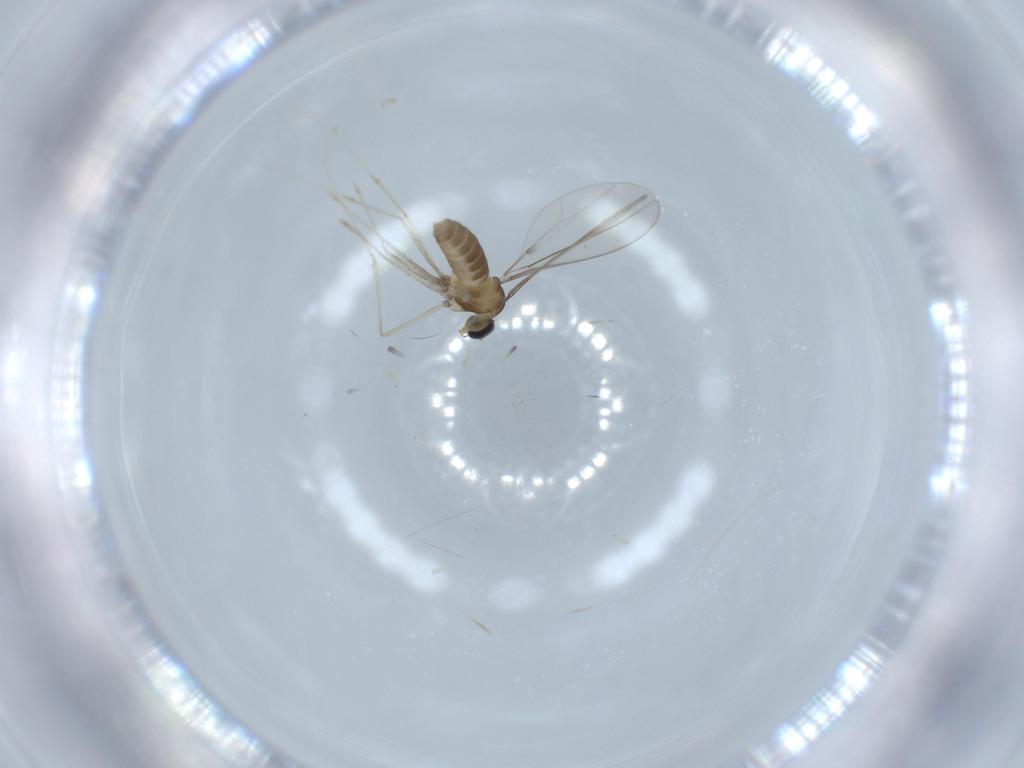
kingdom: Animalia
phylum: Arthropoda
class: Insecta
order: Diptera
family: Cecidomyiidae
